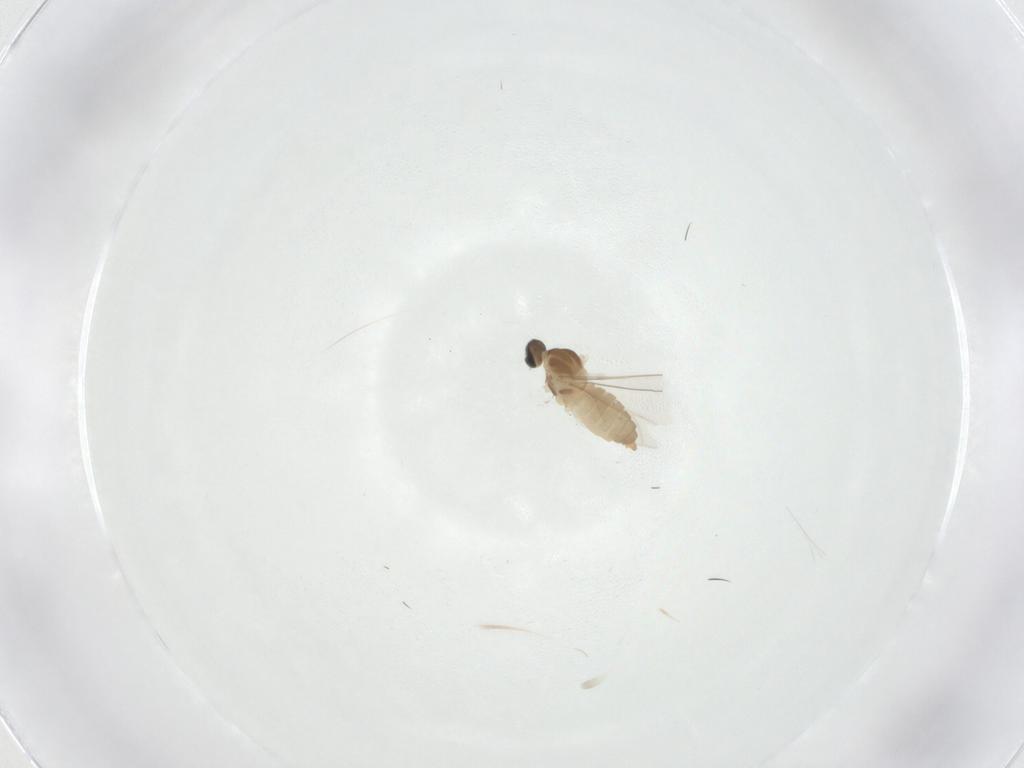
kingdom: Animalia
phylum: Arthropoda
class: Insecta
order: Diptera
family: Cecidomyiidae
